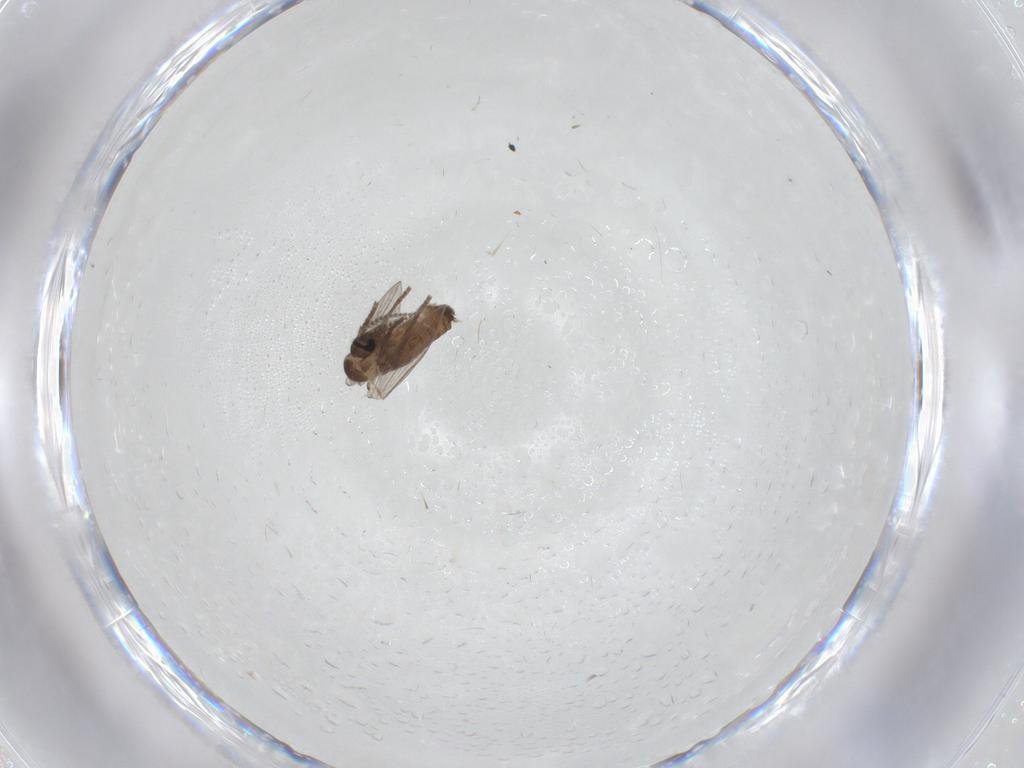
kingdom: Animalia
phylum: Arthropoda
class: Insecta
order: Diptera
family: Psychodidae
